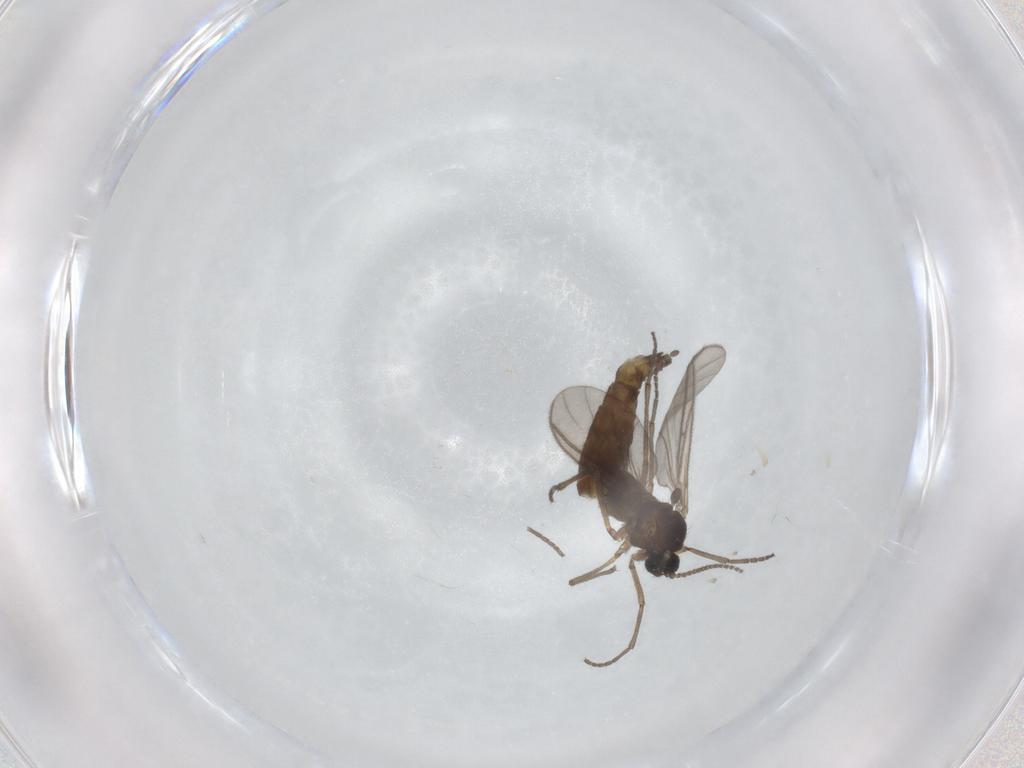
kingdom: Animalia
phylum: Arthropoda
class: Insecta
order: Diptera
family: Sciaridae
